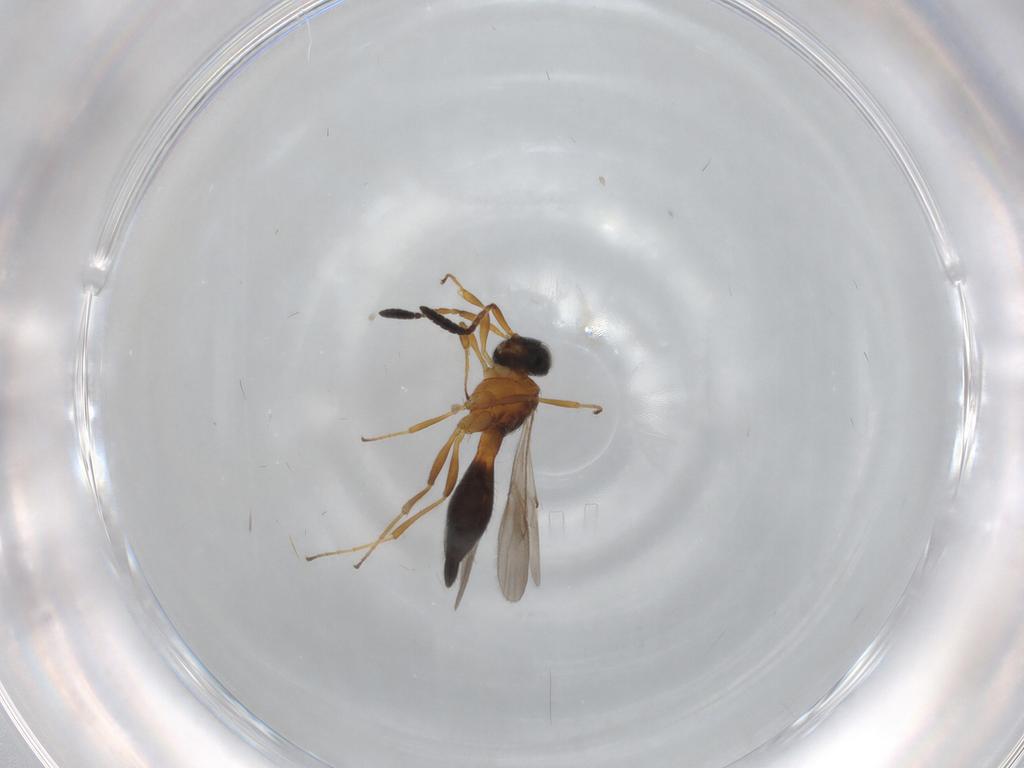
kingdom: Animalia
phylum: Arthropoda
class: Insecta
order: Hymenoptera
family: Scelionidae
